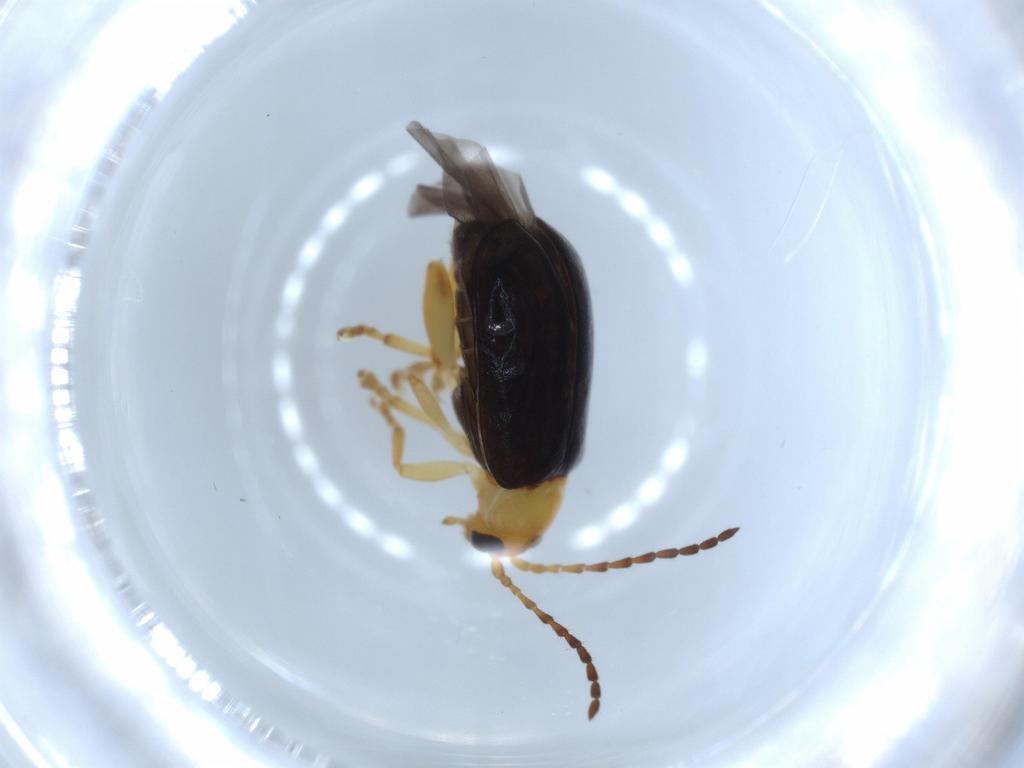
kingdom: Animalia
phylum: Arthropoda
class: Insecta
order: Coleoptera
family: Chrysomelidae
